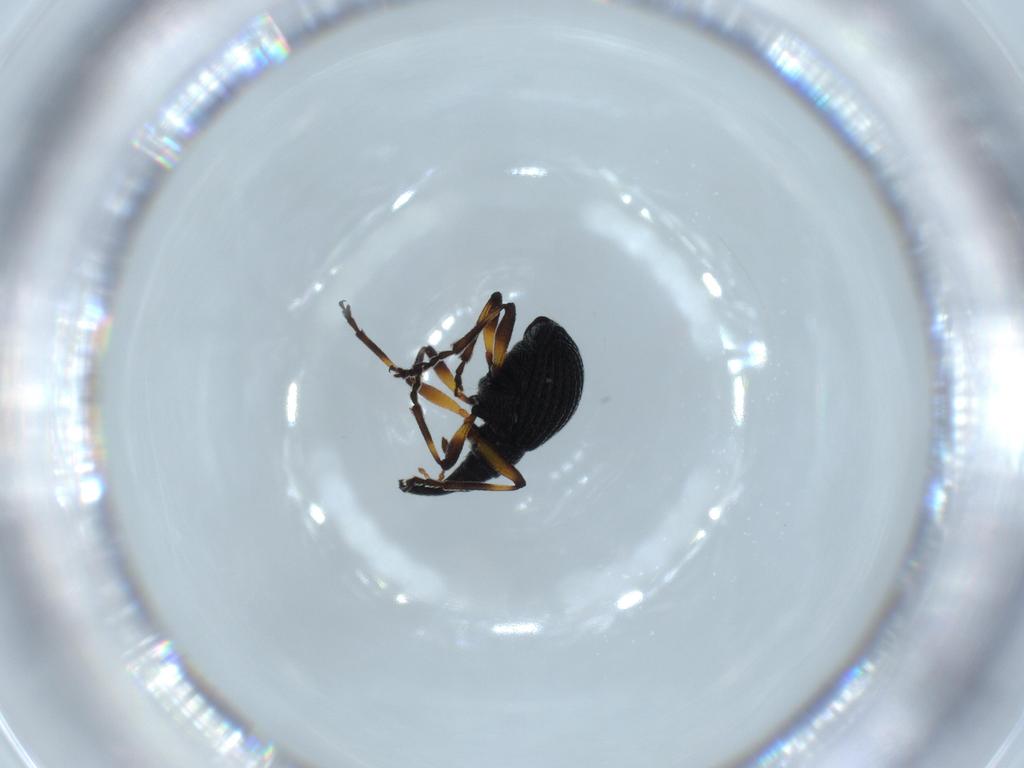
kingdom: Animalia
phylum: Arthropoda
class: Insecta
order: Coleoptera
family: Brentidae
